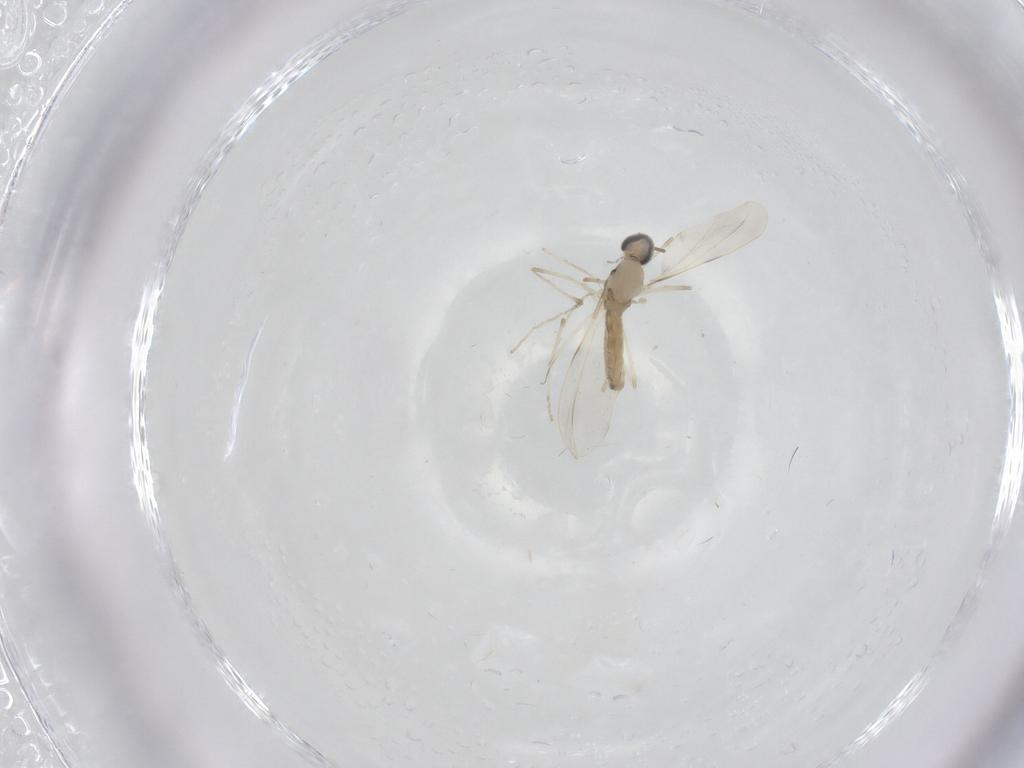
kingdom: Animalia
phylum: Arthropoda
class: Insecta
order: Diptera
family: Cecidomyiidae
